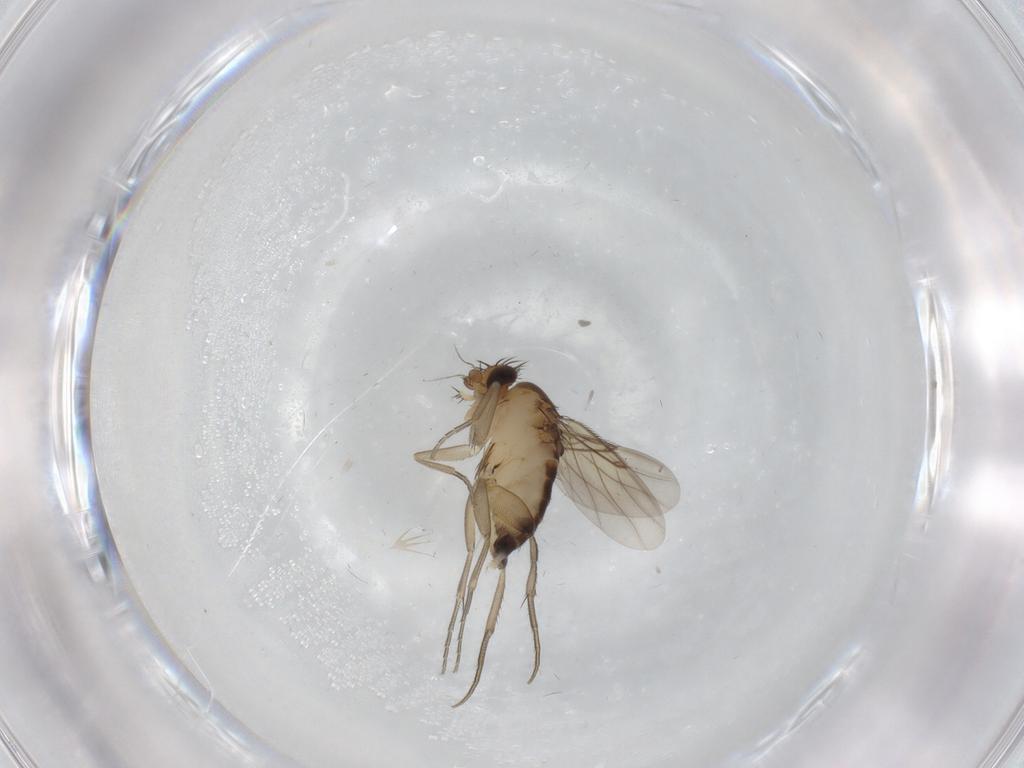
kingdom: Animalia
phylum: Arthropoda
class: Insecta
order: Diptera
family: Phoridae
